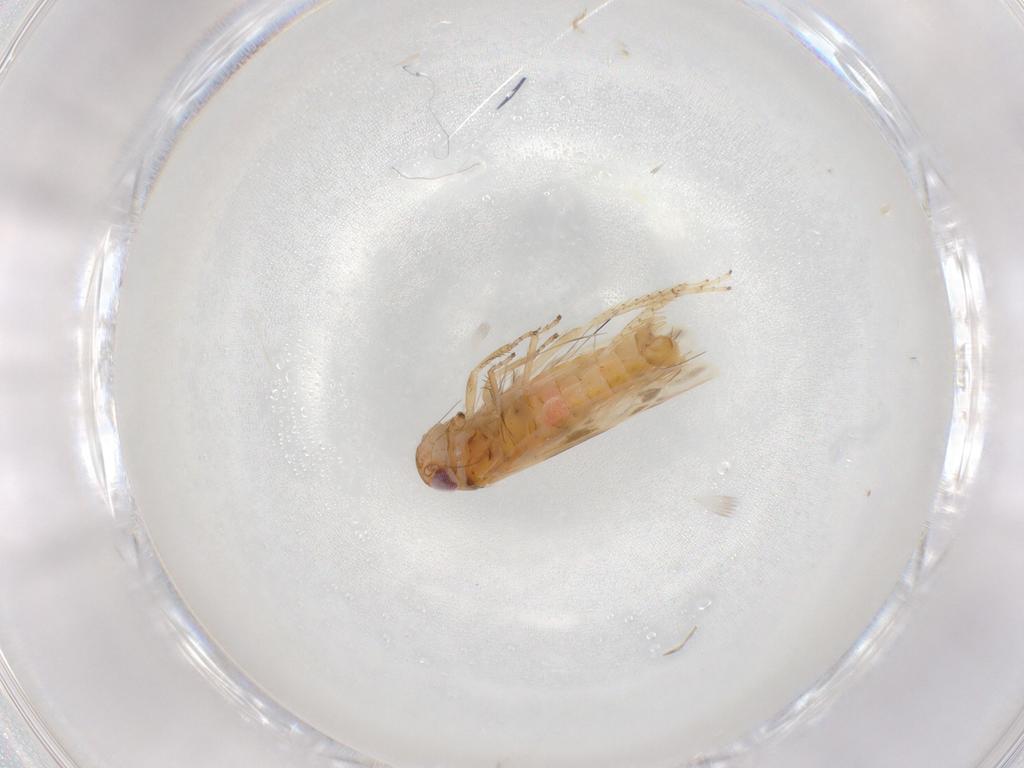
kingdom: Animalia
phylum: Arthropoda
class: Insecta
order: Hemiptera
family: Cicadellidae
